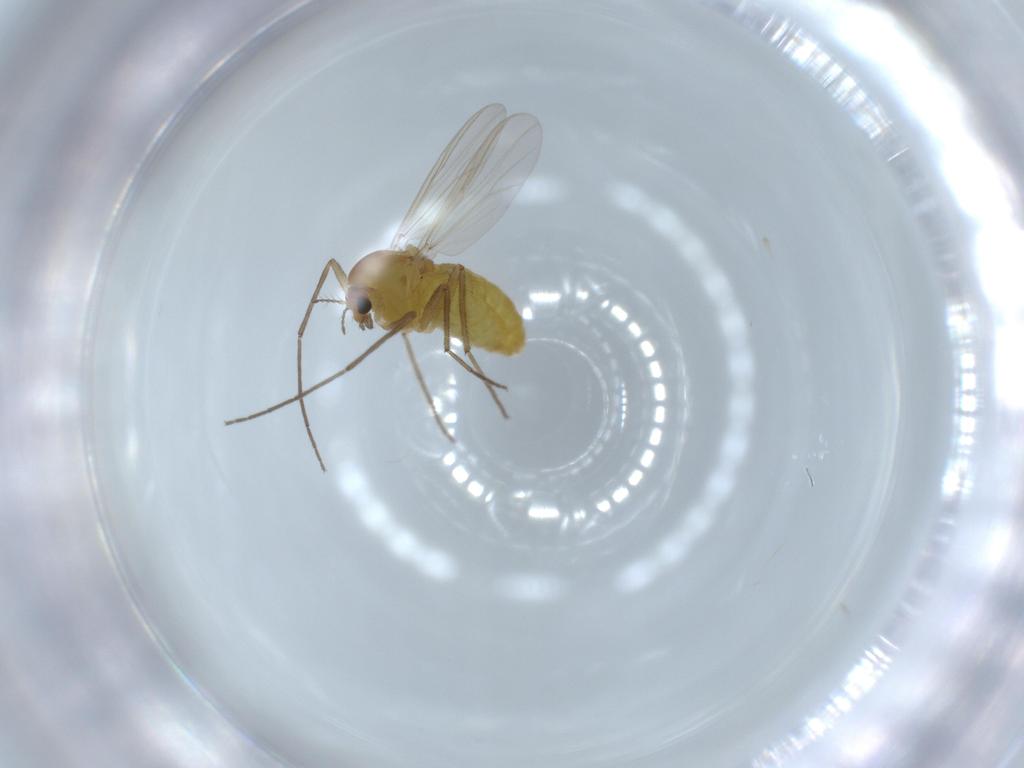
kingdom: Animalia
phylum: Arthropoda
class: Insecta
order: Diptera
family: Chironomidae
